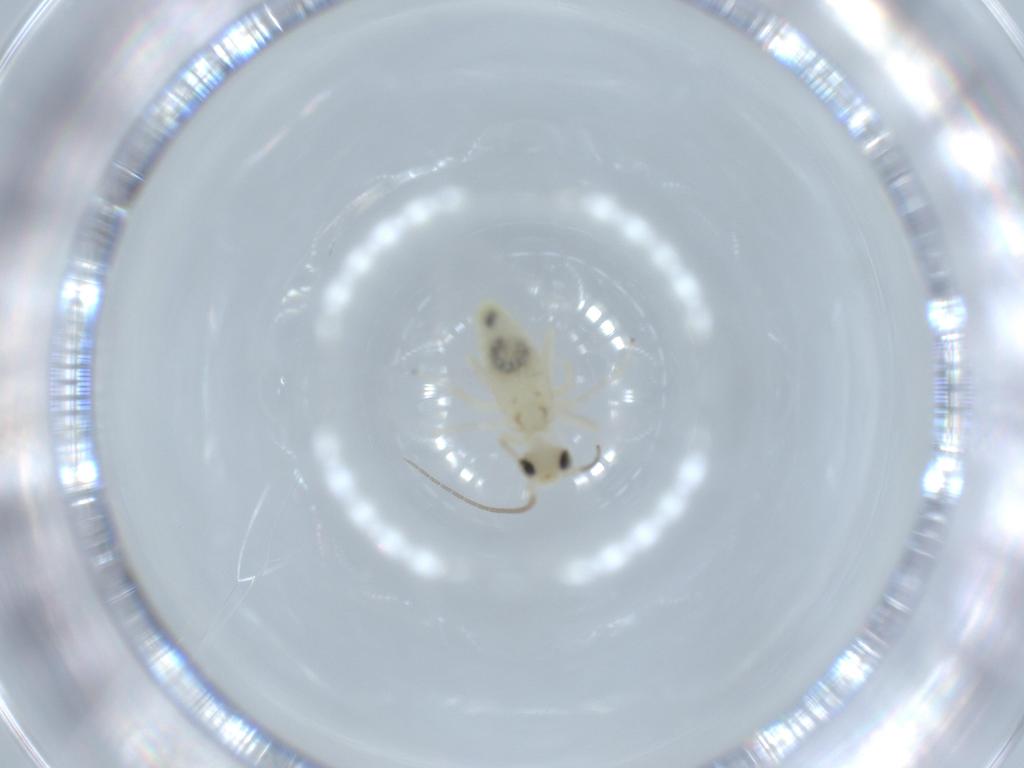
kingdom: Animalia
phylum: Arthropoda
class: Insecta
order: Psocodea
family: Caeciliusidae
